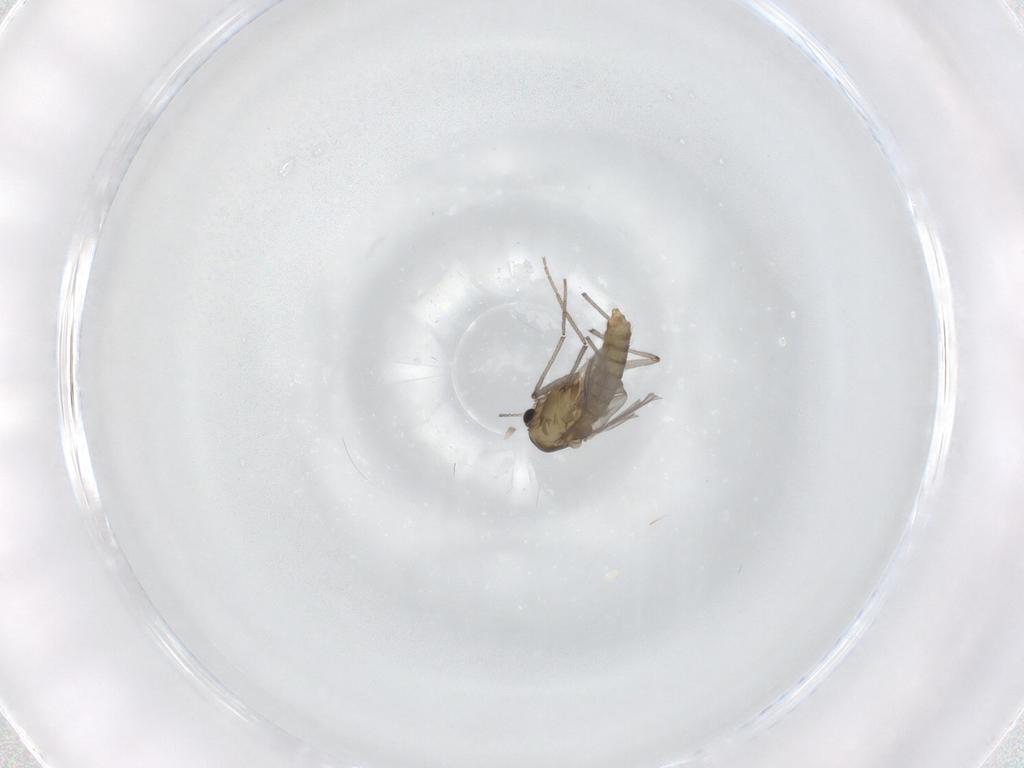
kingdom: Animalia
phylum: Arthropoda
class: Insecta
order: Diptera
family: Chironomidae
